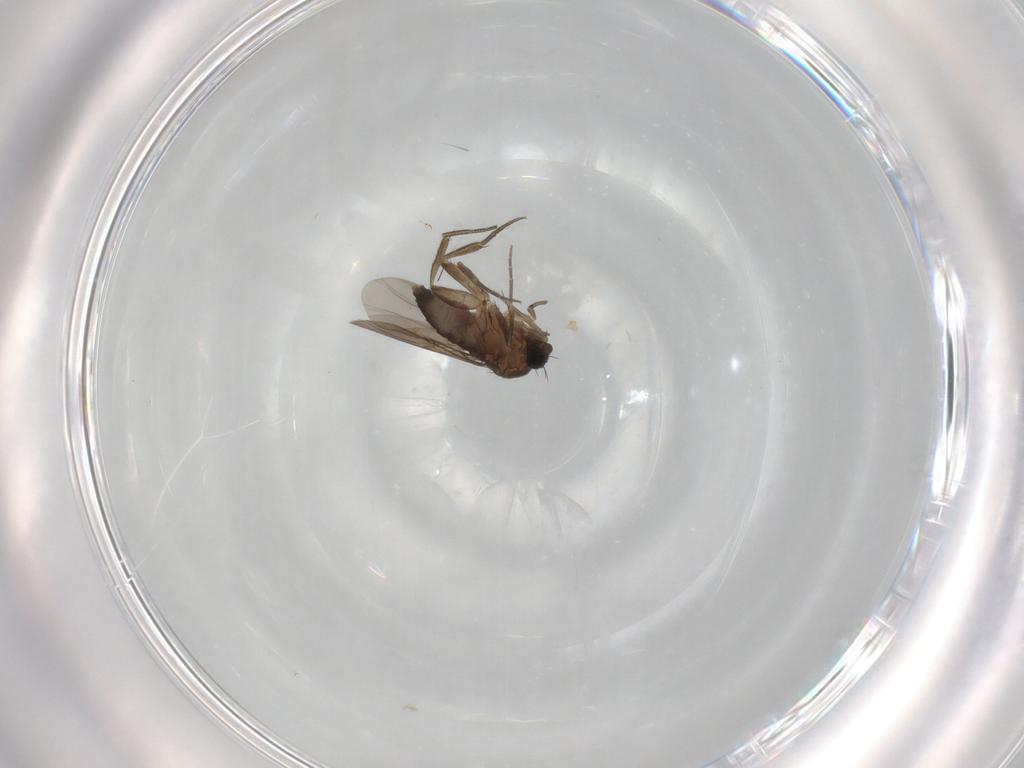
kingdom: Animalia
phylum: Arthropoda
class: Insecta
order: Diptera
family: Phoridae
